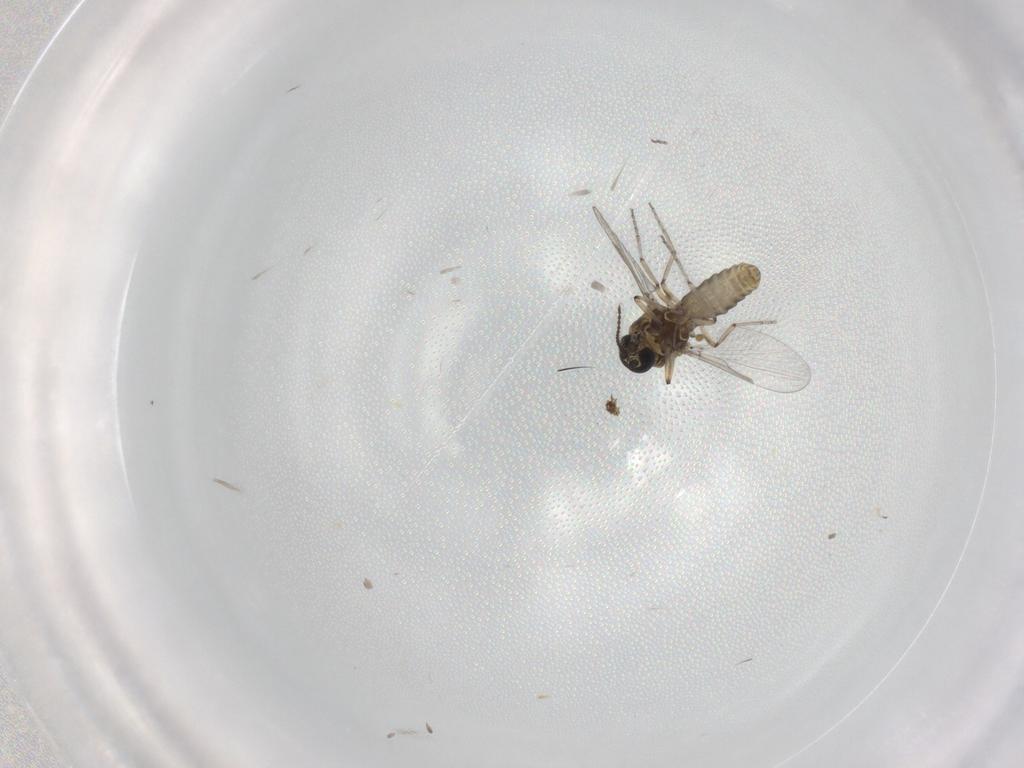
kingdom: Animalia
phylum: Arthropoda
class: Insecta
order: Diptera
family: Ceratopogonidae
